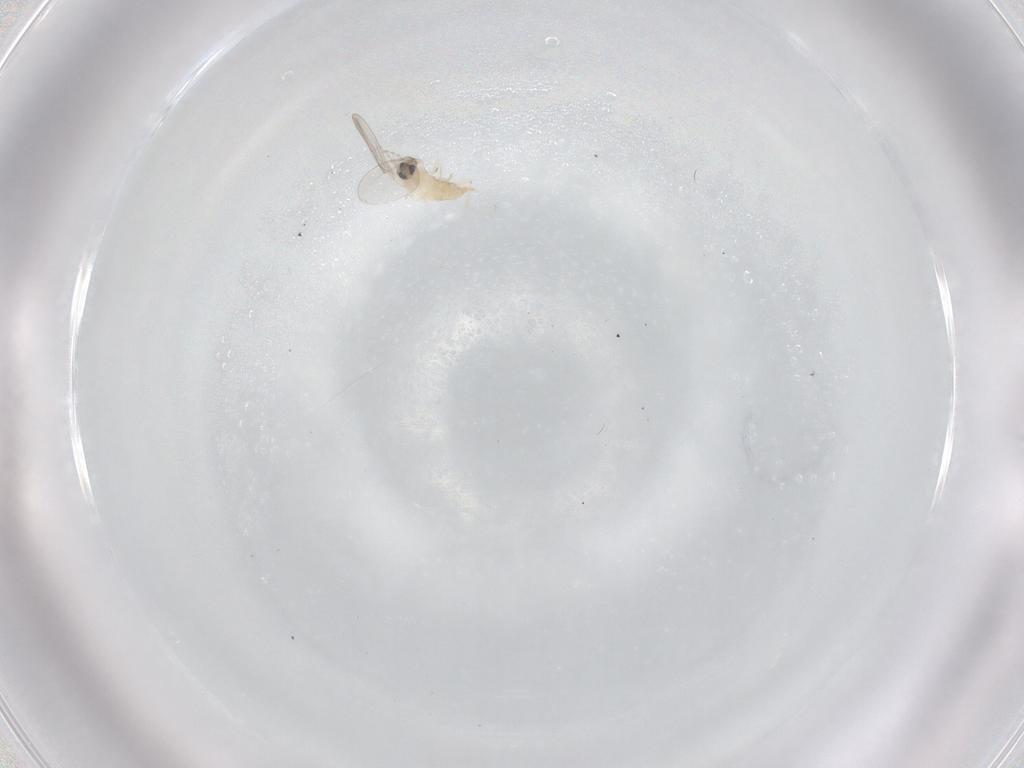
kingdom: Animalia
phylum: Arthropoda
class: Insecta
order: Diptera
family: Cecidomyiidae
